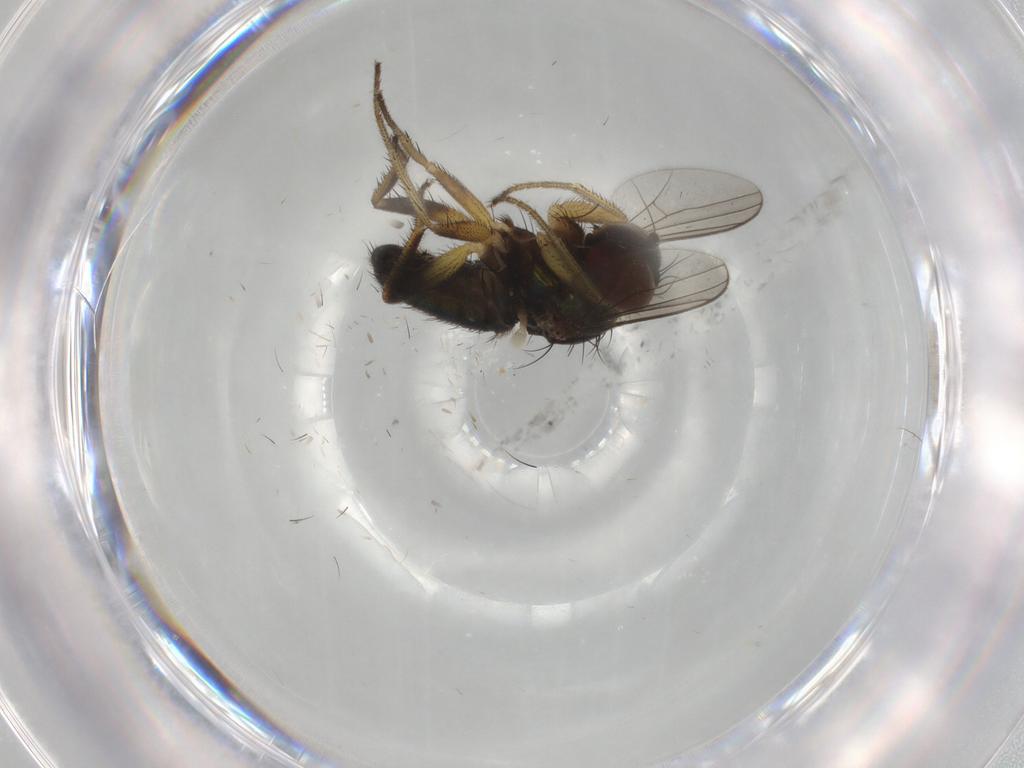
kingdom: Animalia
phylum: Arthropoda
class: Insecta
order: Diptera
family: Dolichopodidae
